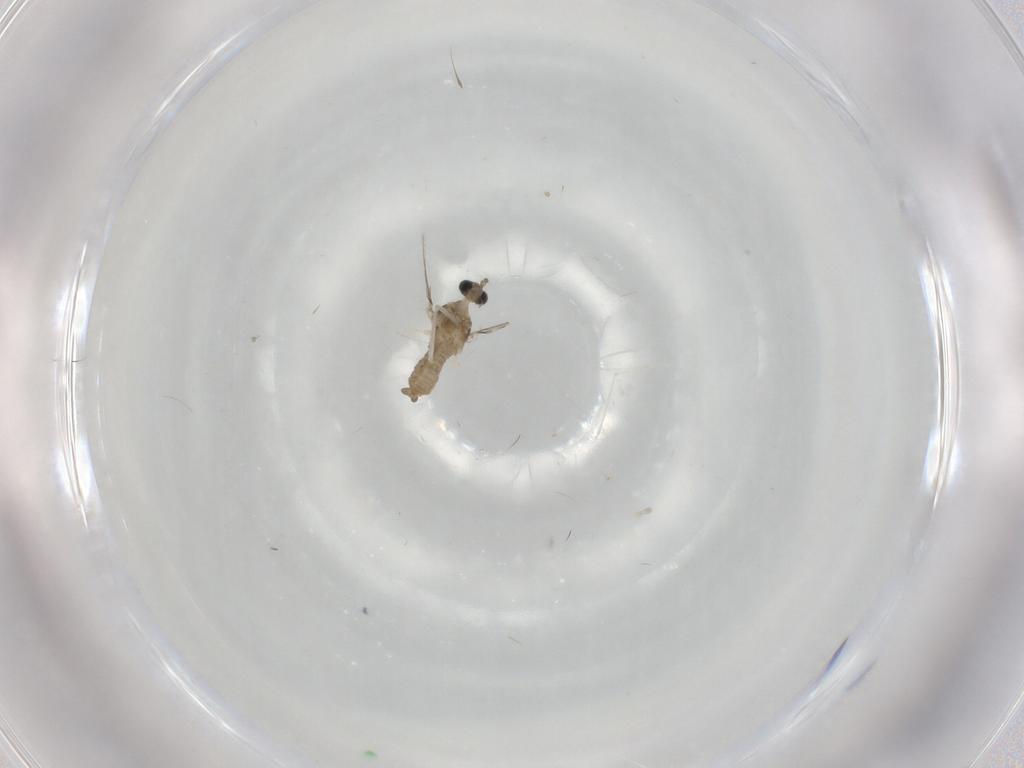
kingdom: Animalia
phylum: Arthropoda
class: Insecta
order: Diptera
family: Cecidomyiidae
